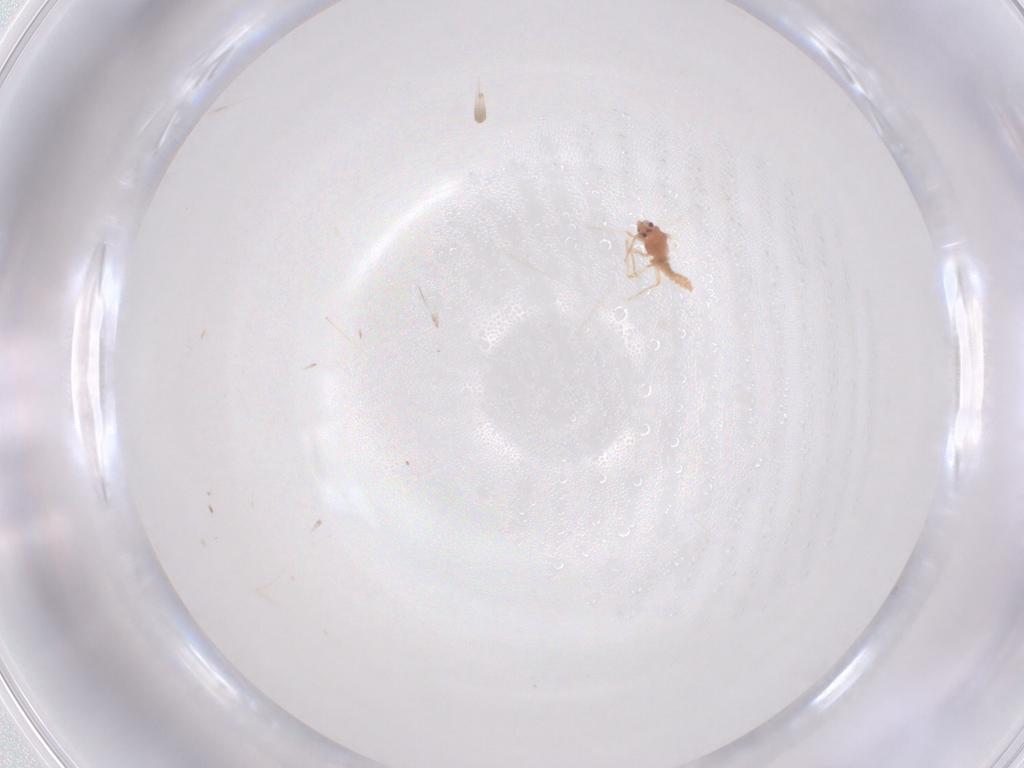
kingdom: Animalia
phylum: Arthropoda
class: Insecta
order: Hemiptera
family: Pseudococcidae
